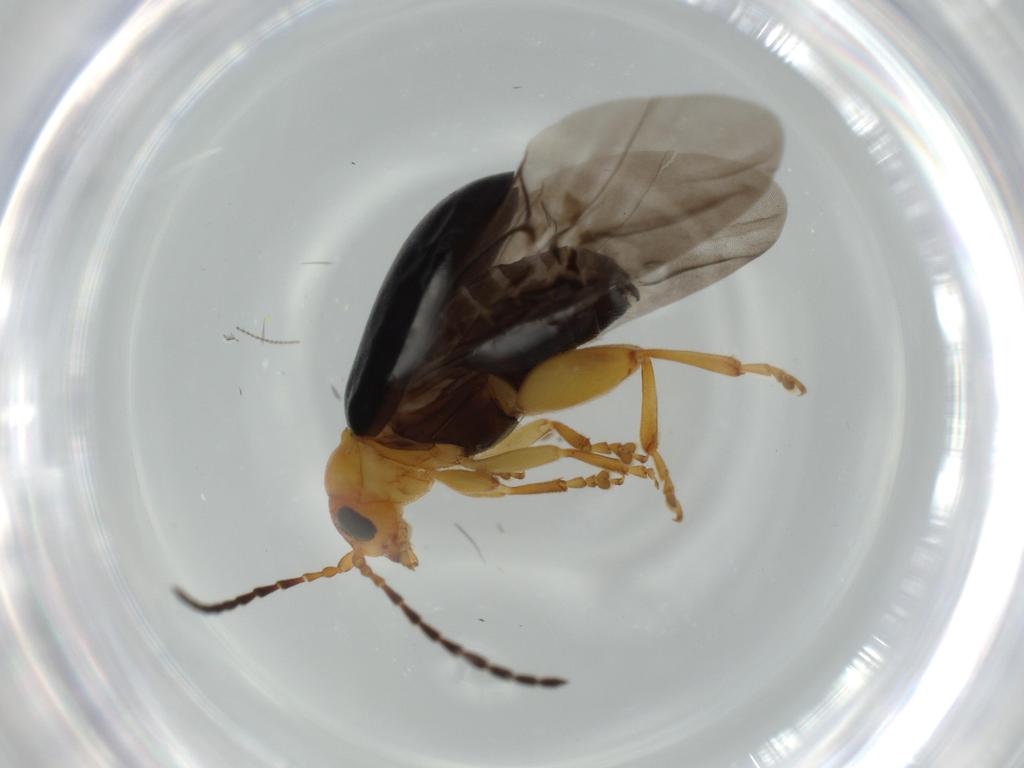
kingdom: Animalia
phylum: Arthropoda
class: Insecta
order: Coleoptera
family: Chrysomelidae
